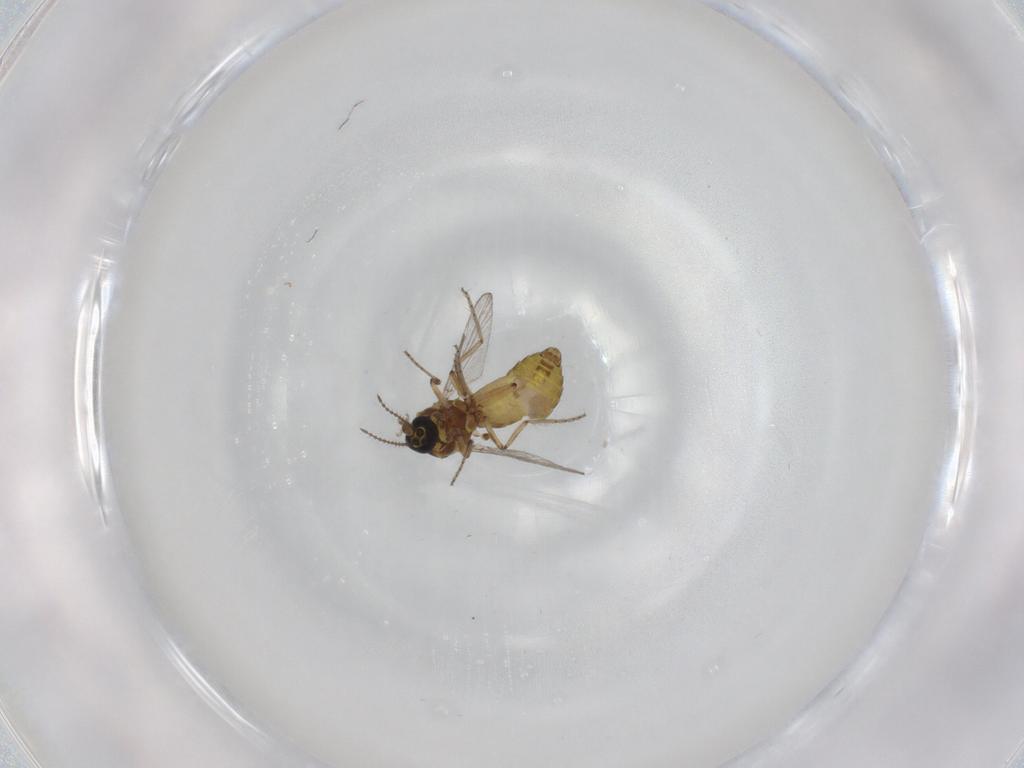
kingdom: Animalia
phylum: Arthropoda
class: Insecta
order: Diptera
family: Ceratopogonidae
